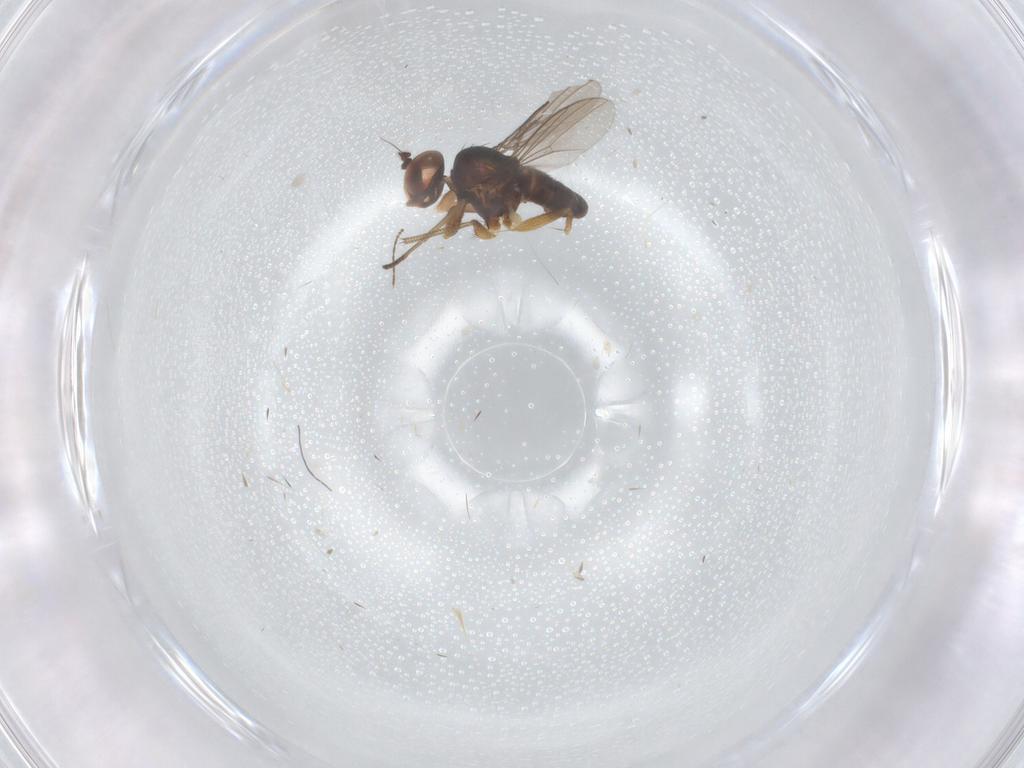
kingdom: Animalia
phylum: Arthropoda
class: Insecta
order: Diptera
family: Dolichopodidae
